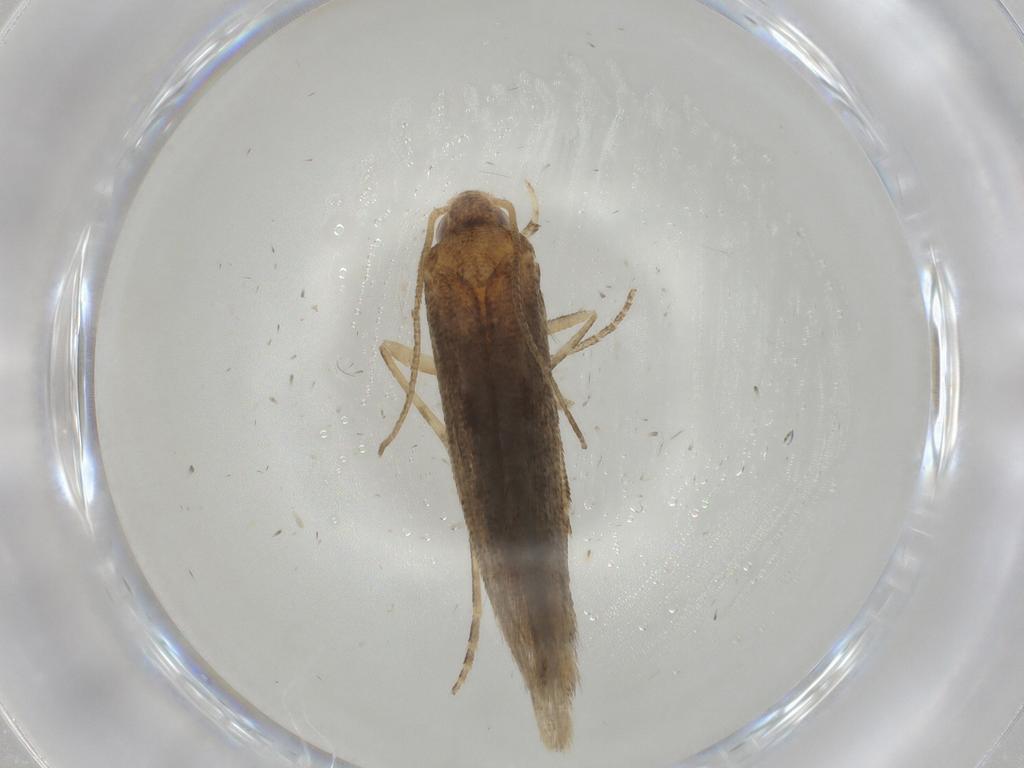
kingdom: Animalia
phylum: Arthropoda
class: Insecta
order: Lepidoptera
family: Batrachedridae
